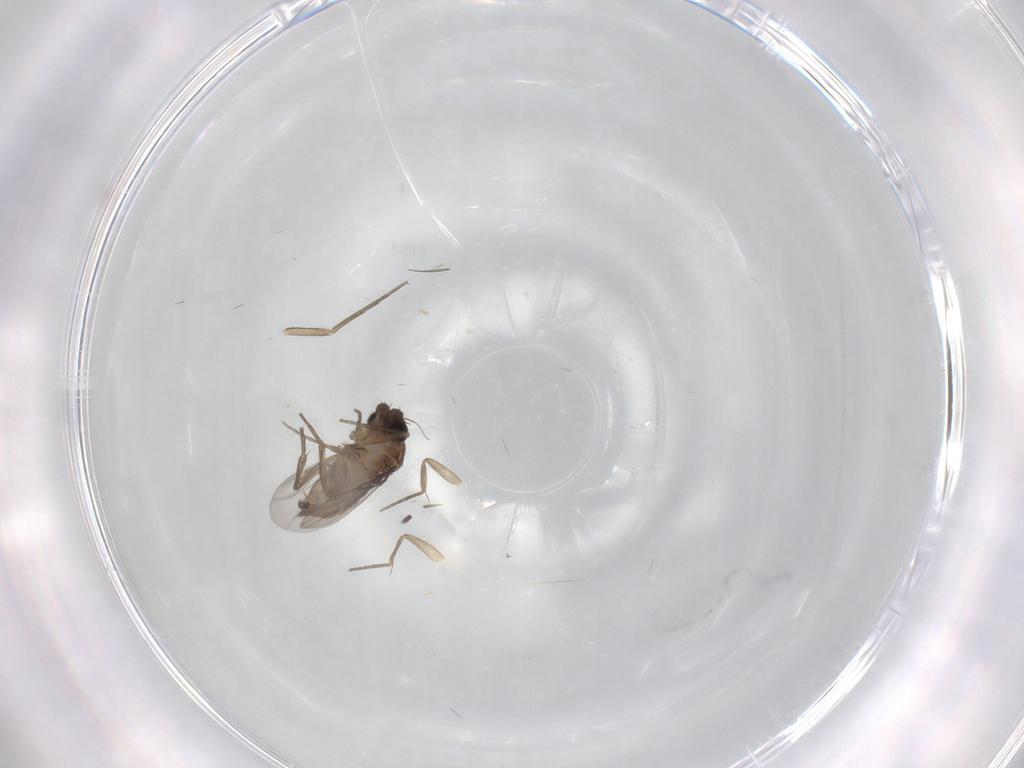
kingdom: Animalia
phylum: Arthropoda
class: Insecta
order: Diptera
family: Phoridae
